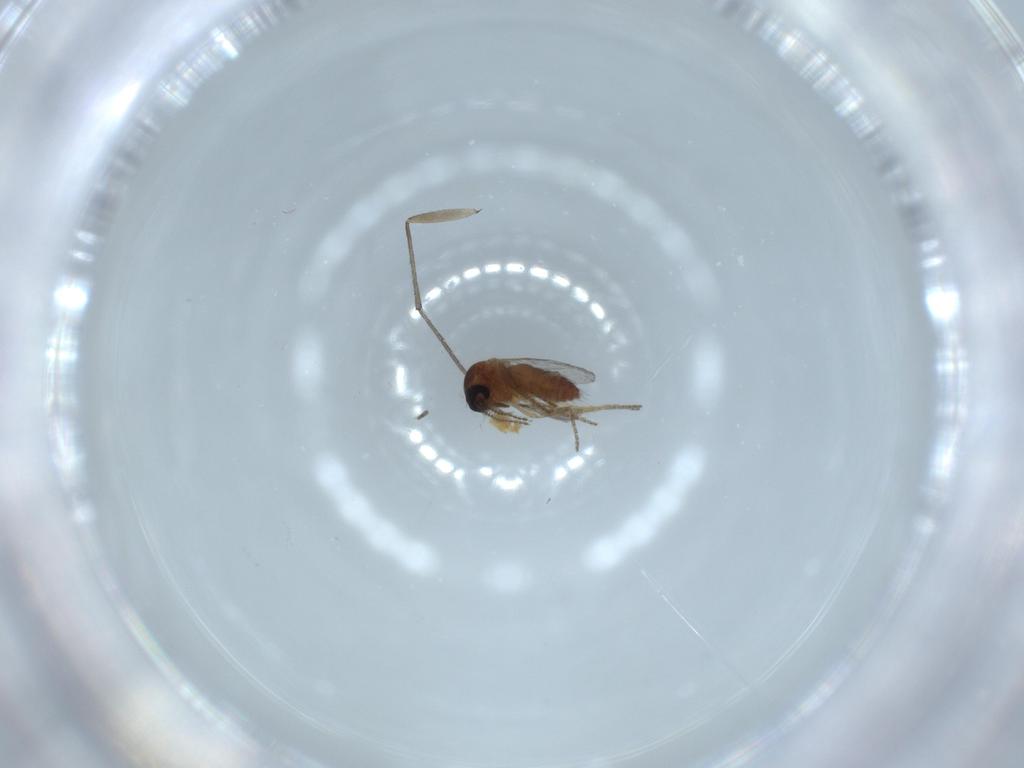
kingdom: Animalia
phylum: Arthropoda
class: Insecta
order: Diptera
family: Ceratopogonidae
